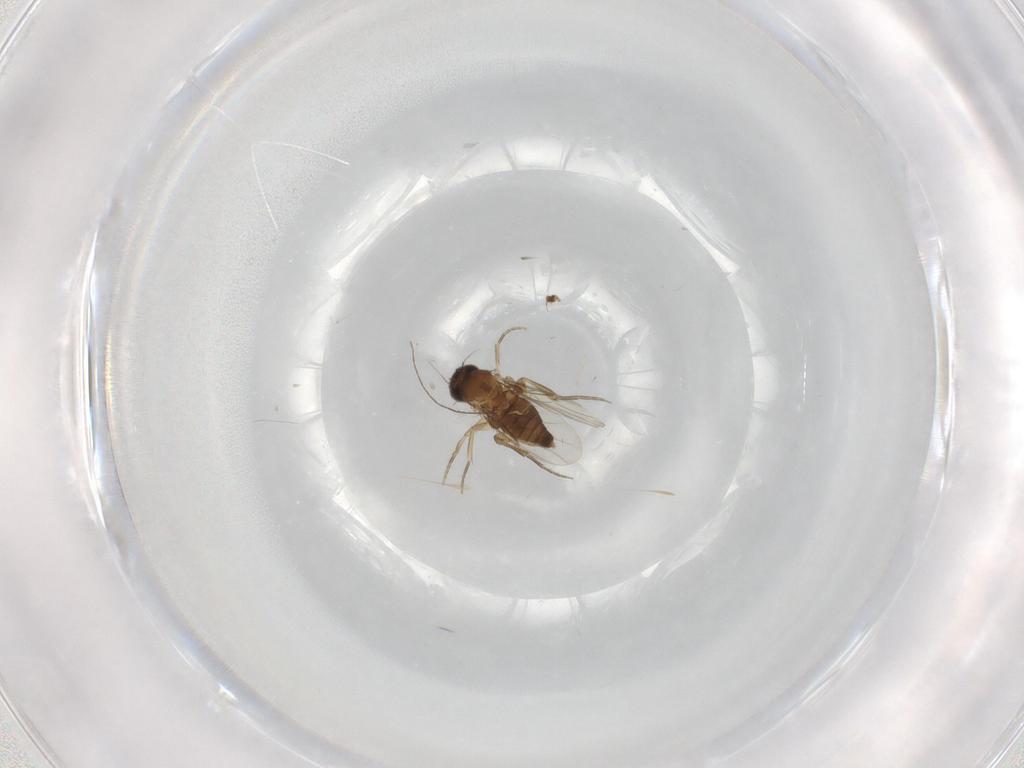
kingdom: Animalia
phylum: Arthropoda
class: Insecta
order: Diptera
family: Phoridae
